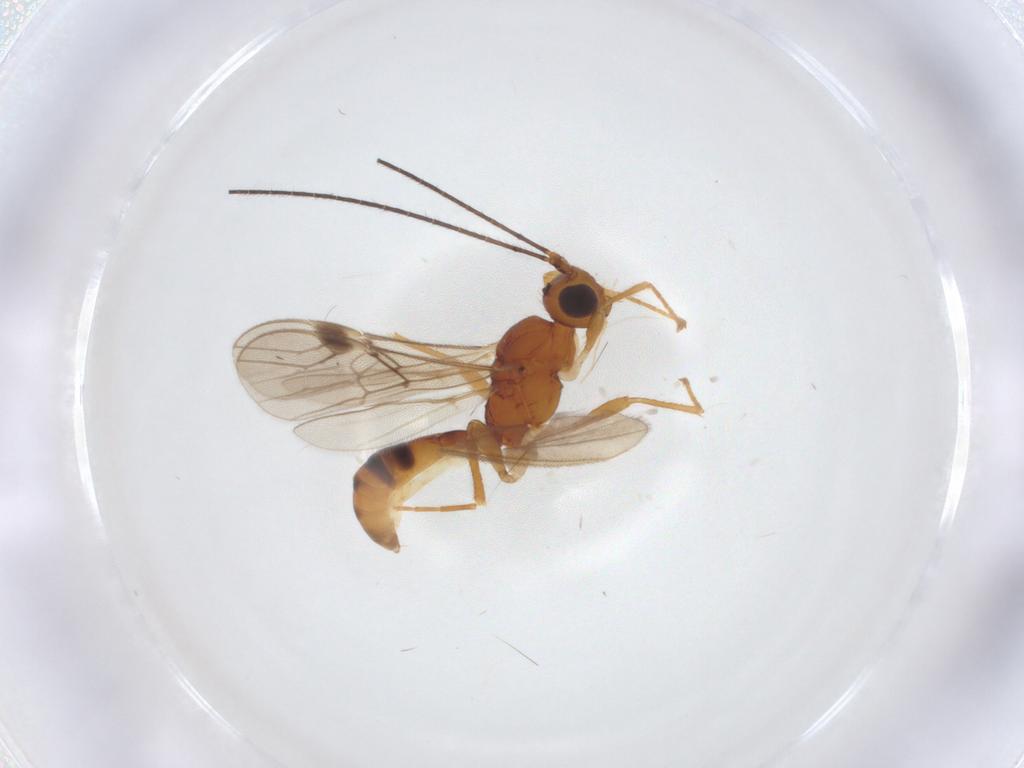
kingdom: Animalia
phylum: Arthropoda
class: Insecta
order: Hymenoptera
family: Braconidae
